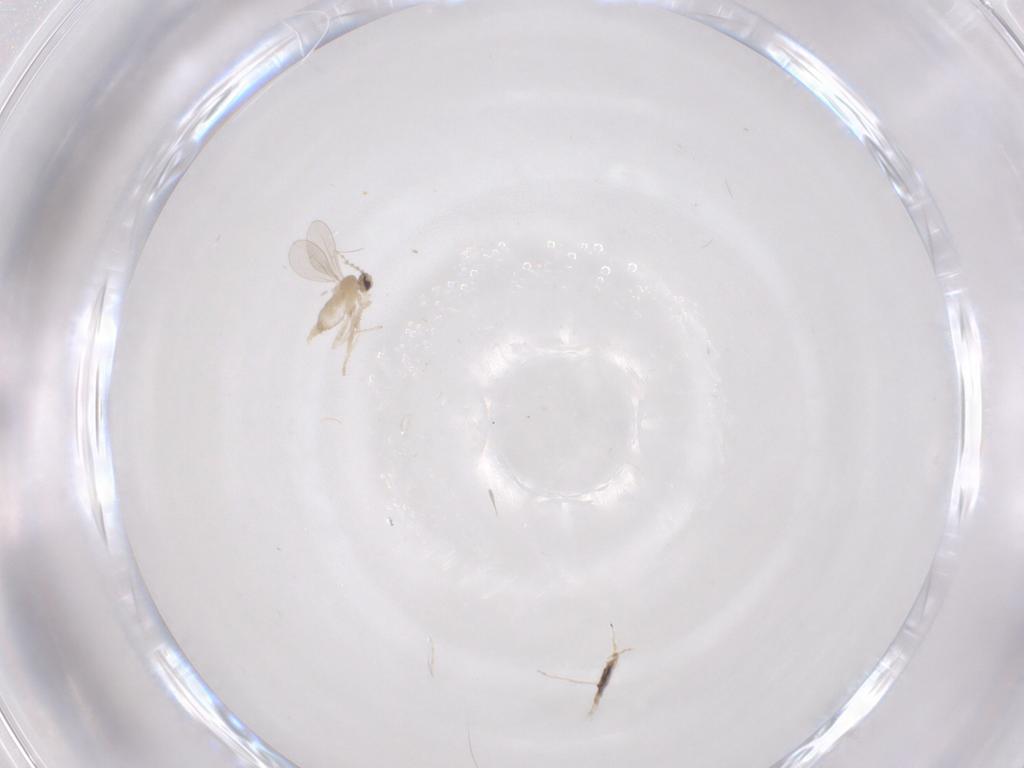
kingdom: Animalia
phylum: Arthropoda
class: Insecta
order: Diptera
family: Cecidomyiidae
